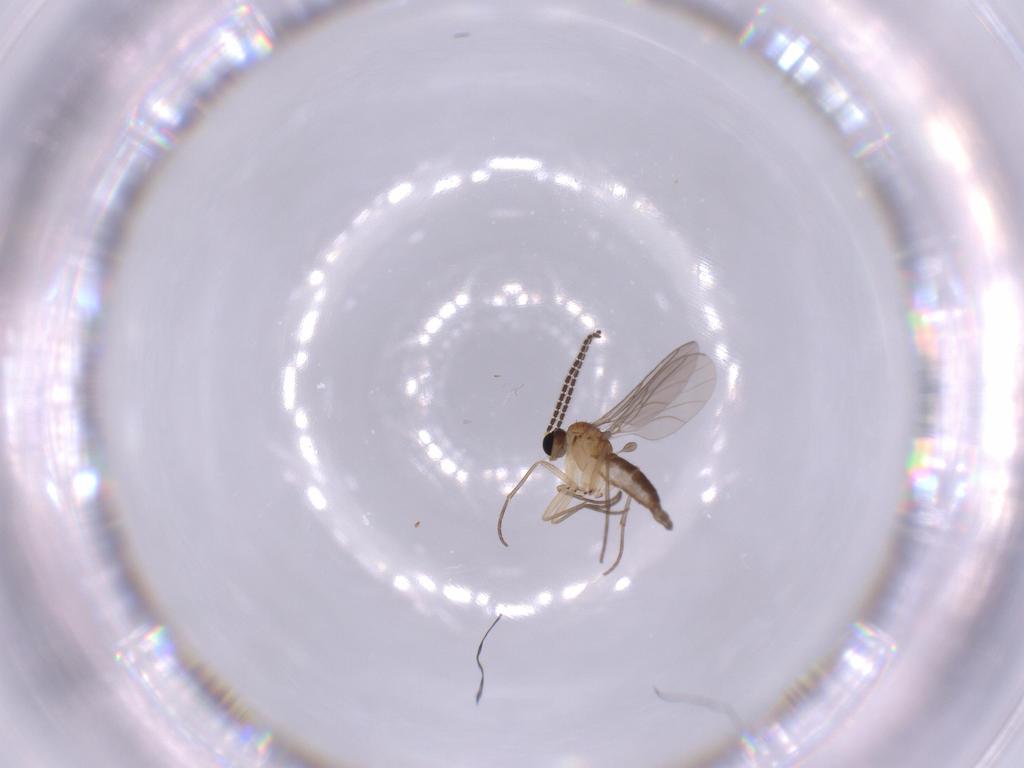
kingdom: Animalia
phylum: Arthropoda
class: Insecta
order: Diptera
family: Sciaridae
